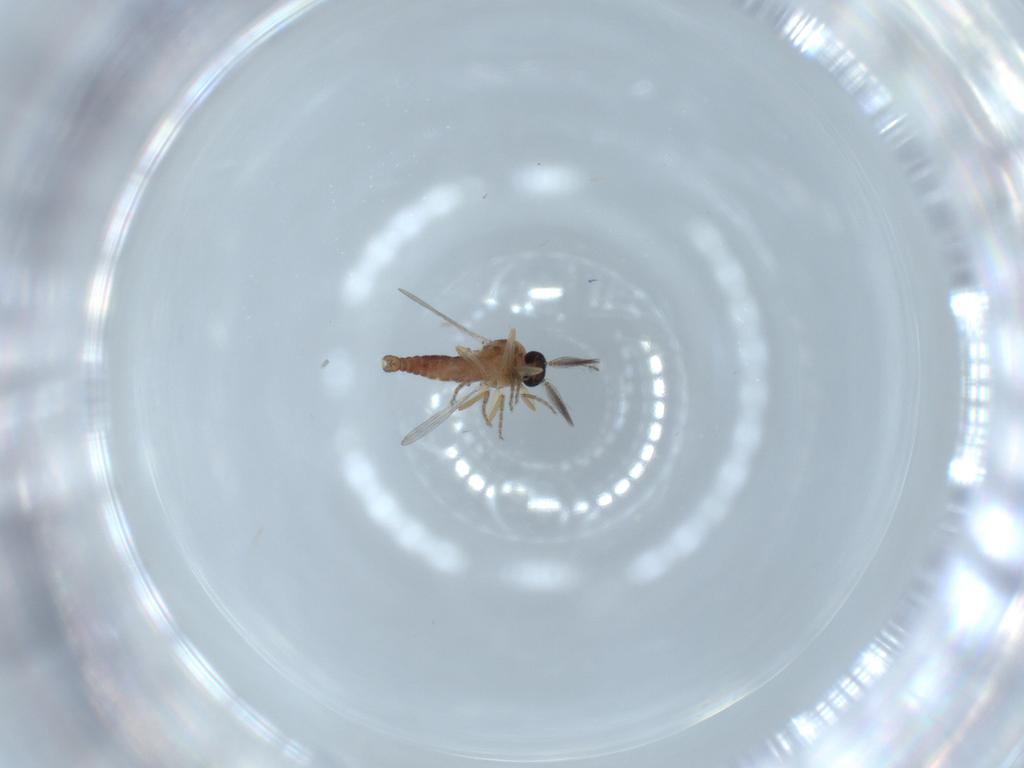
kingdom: Animalia
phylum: Arthropoda
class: Insecta
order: Diptera
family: Ceratopogonidae
